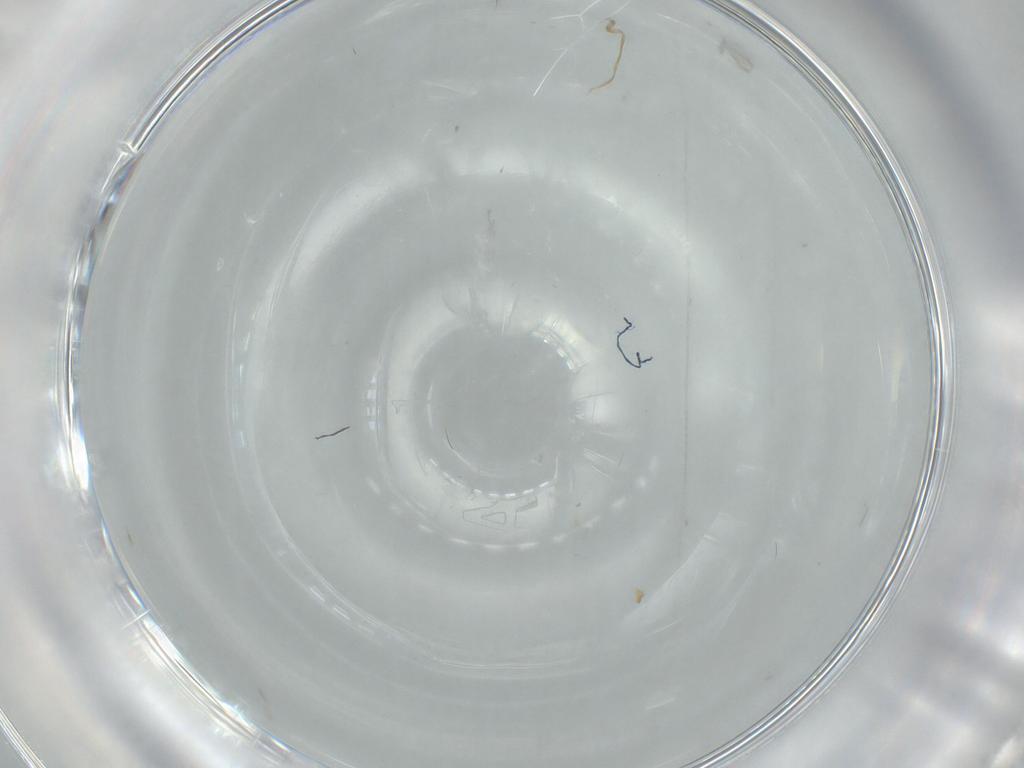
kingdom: Animalia
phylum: Arthropoda
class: Insecta
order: Diptera
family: Cecidomyiidae
